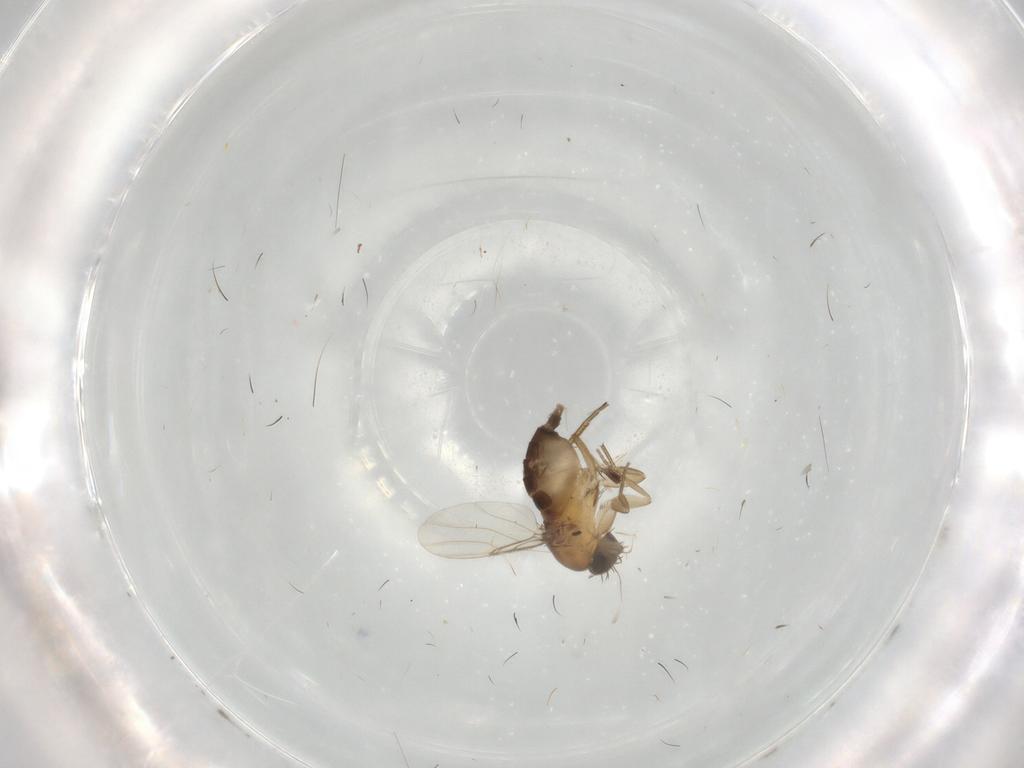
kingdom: Animalia
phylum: Arthropoda
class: Insecta
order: Diptera
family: Phoridae
